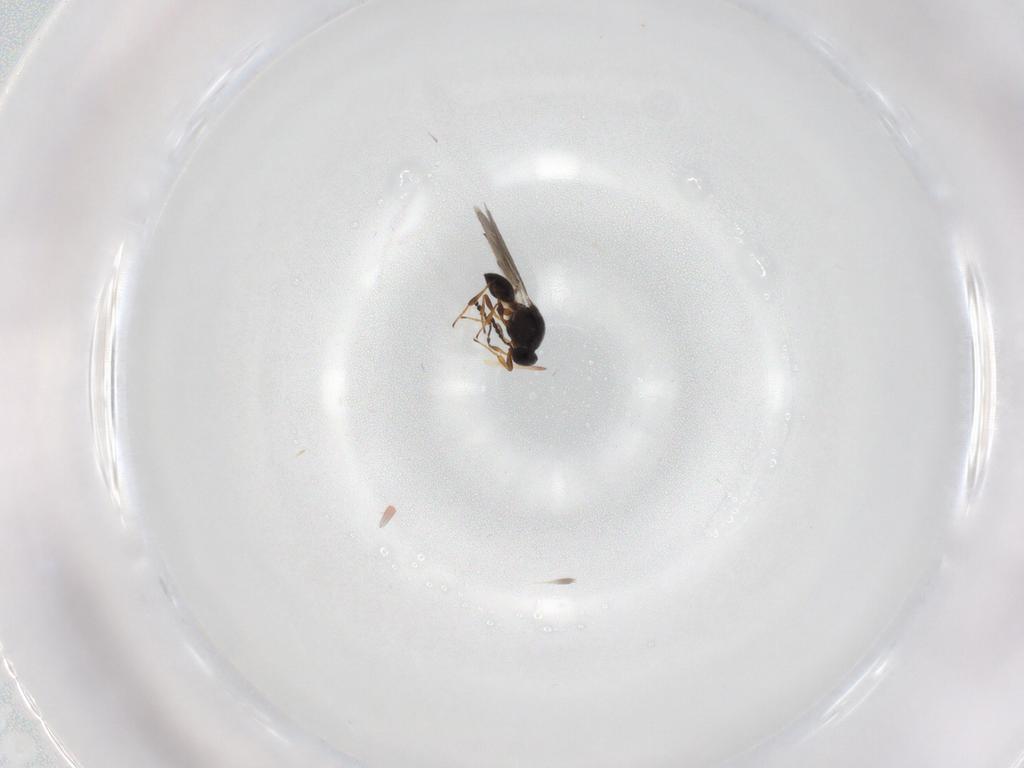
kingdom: Animalia
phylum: Arthropoda
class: Insecta
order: Hymenoptera
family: Platygastridae
